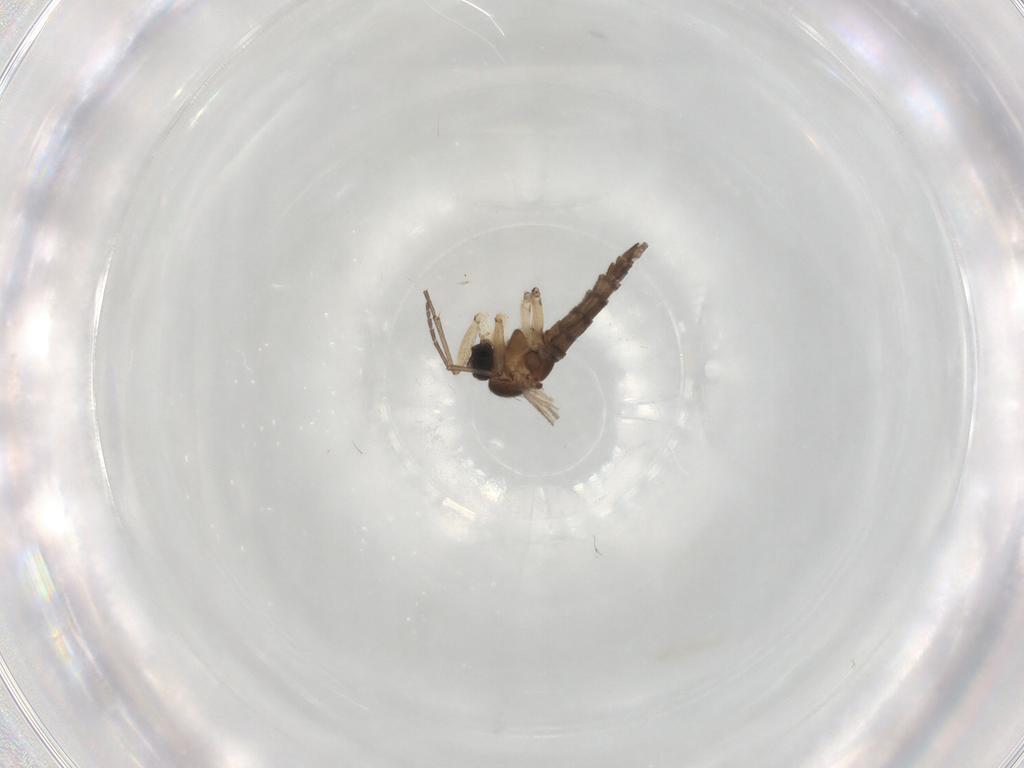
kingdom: Animalia
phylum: Arthropoda
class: Insecta
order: Diptera
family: Sciaridae
